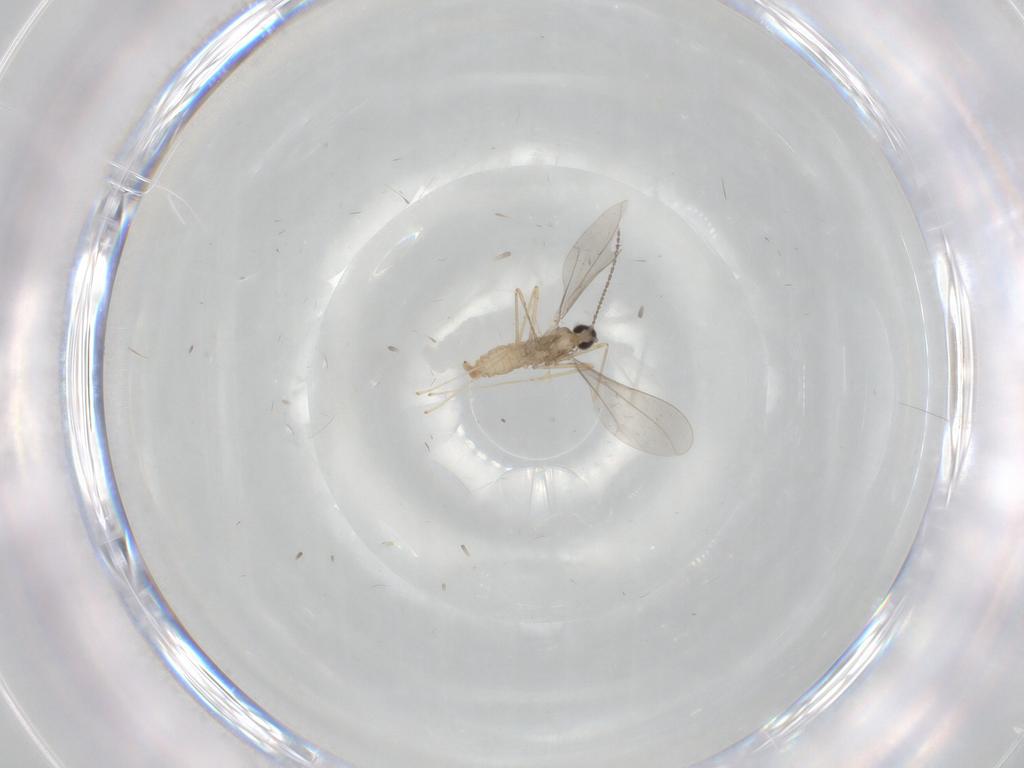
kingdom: Animalia
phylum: Arthropoda
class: Insecta
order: Diptera
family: Cecidomyiidae
